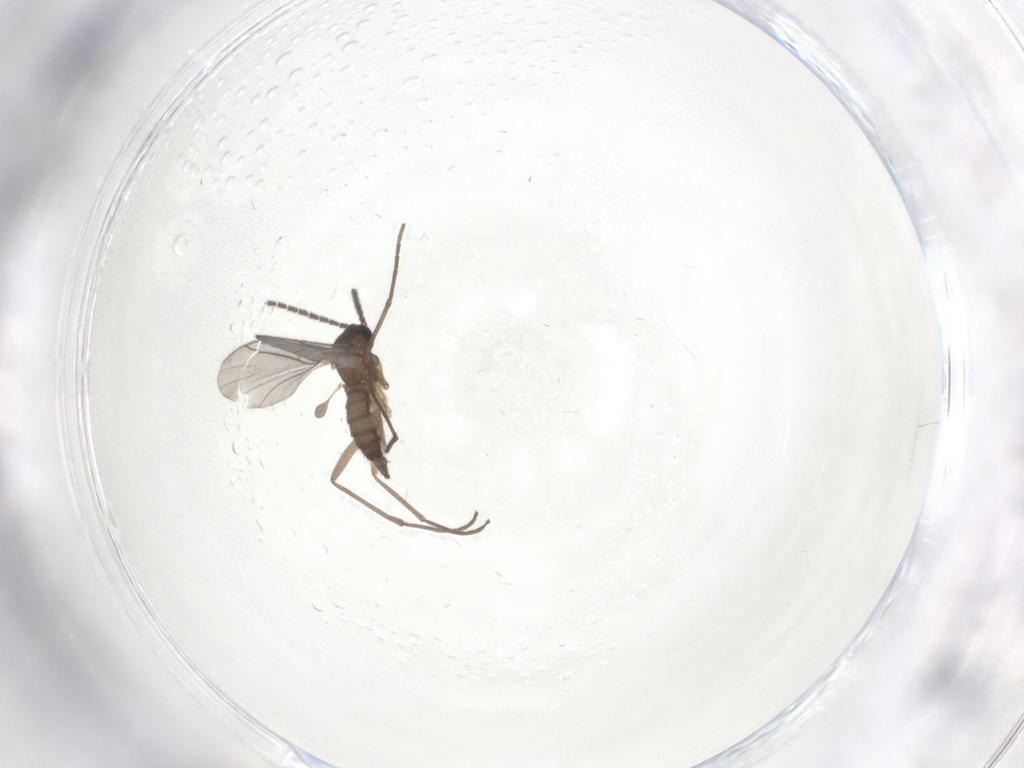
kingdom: Animalia
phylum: Arthropoda
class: Insecta
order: Diptera
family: Sciaridae
